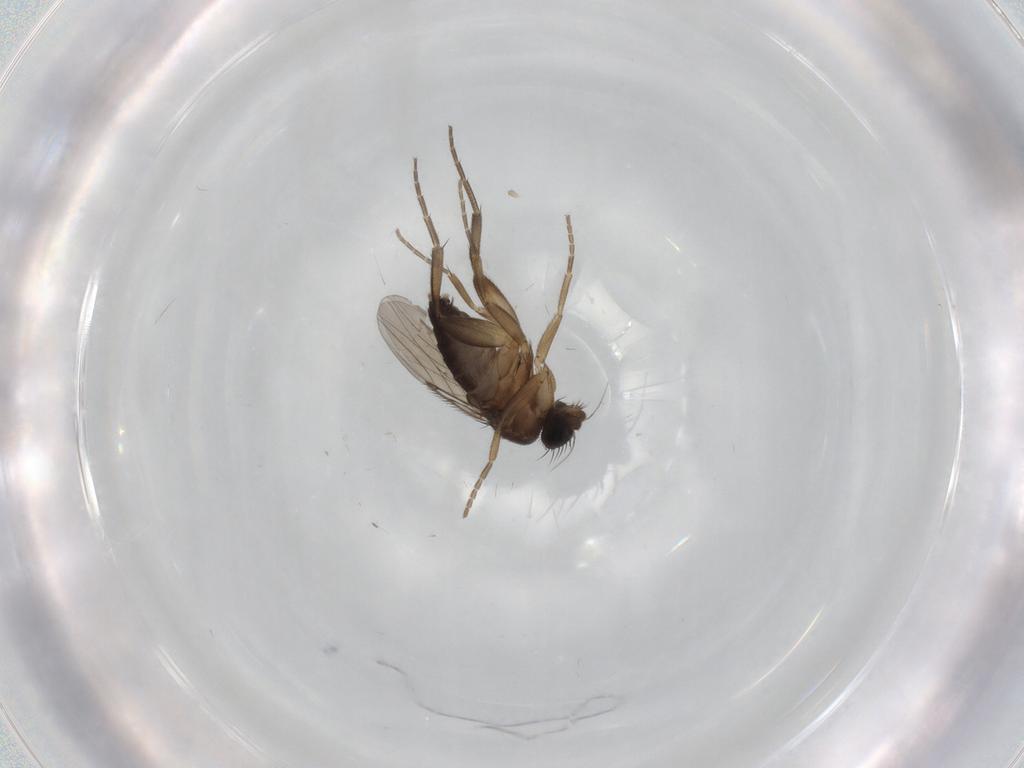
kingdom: Animalia
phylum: Arthropoda
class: Insecta
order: Diptera
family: Phoridae
